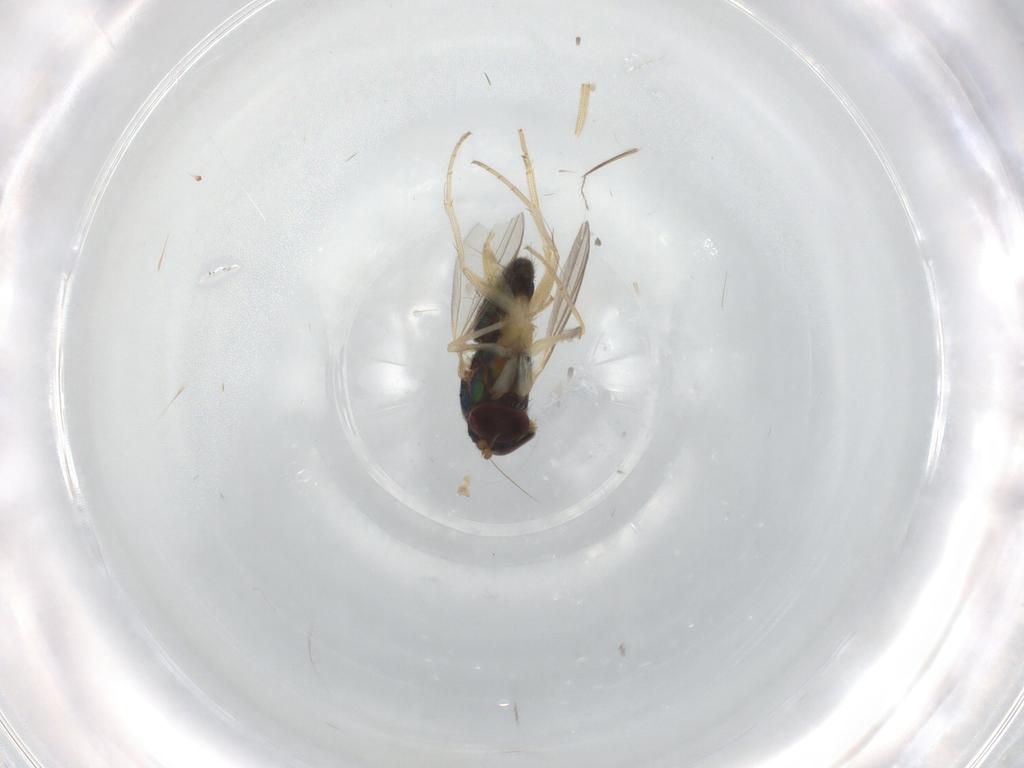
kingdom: Animalia
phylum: Arthropoda
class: Insecta
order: Diptera
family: Dolichopodidae
